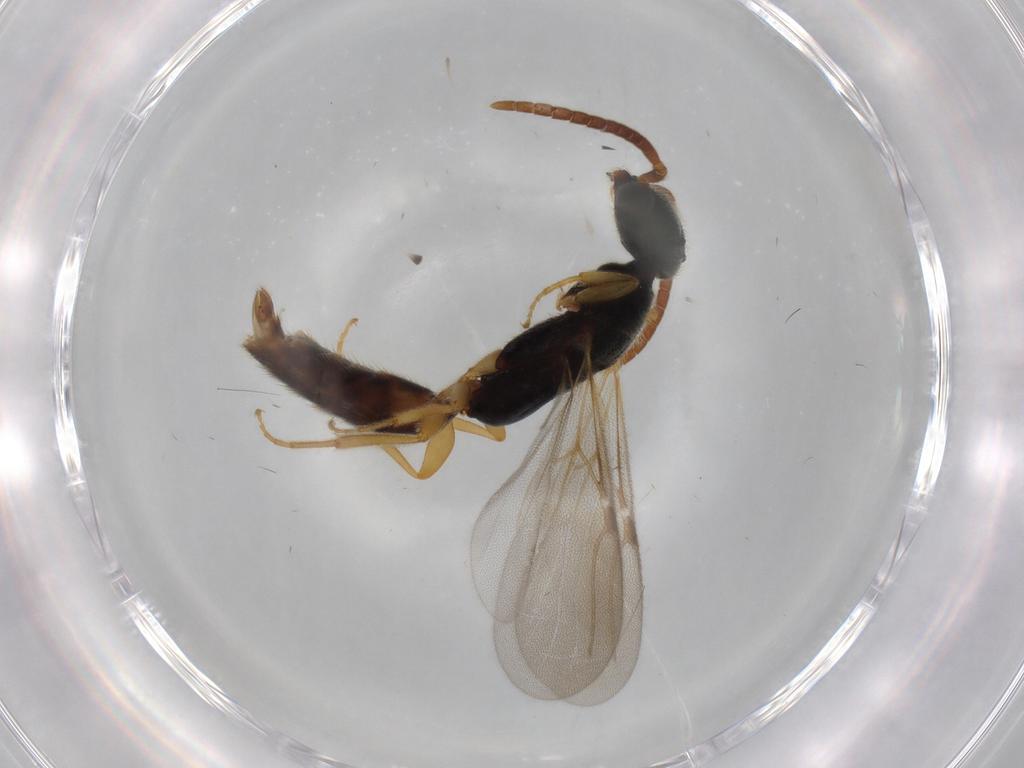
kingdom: Animalia
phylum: Arthropoda
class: Insecta
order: Hymenoptera
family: Bethylidae
